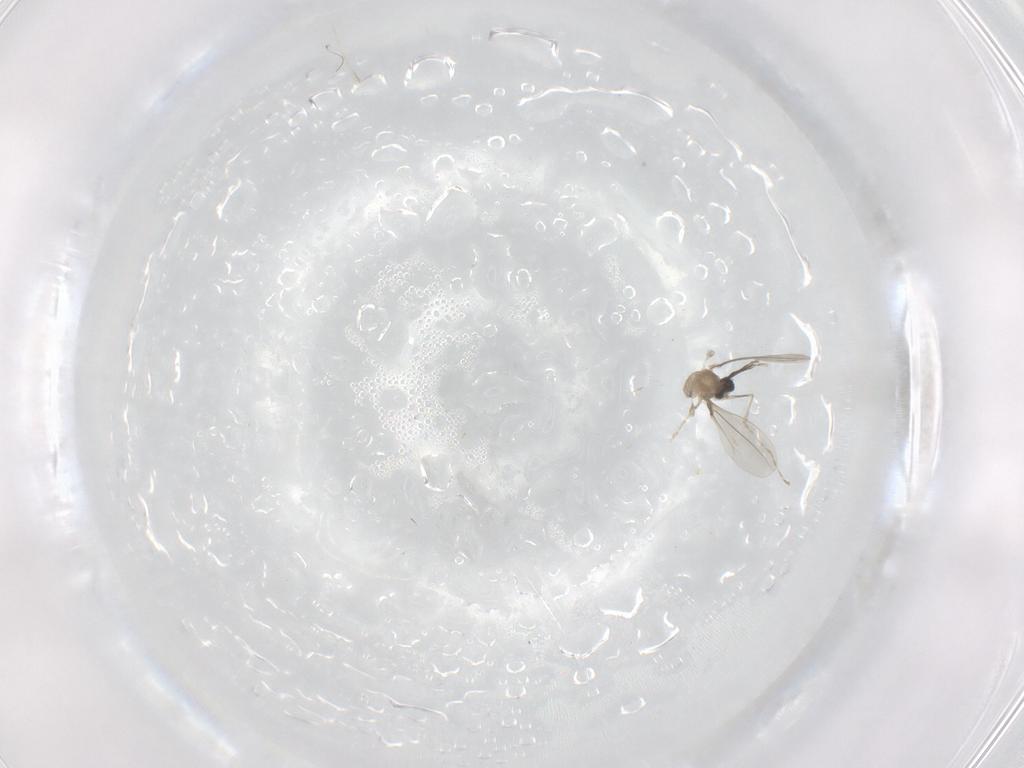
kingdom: Animalia
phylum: Arthropoda
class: Insecta
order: Diptera
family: Cecidomyiidae
